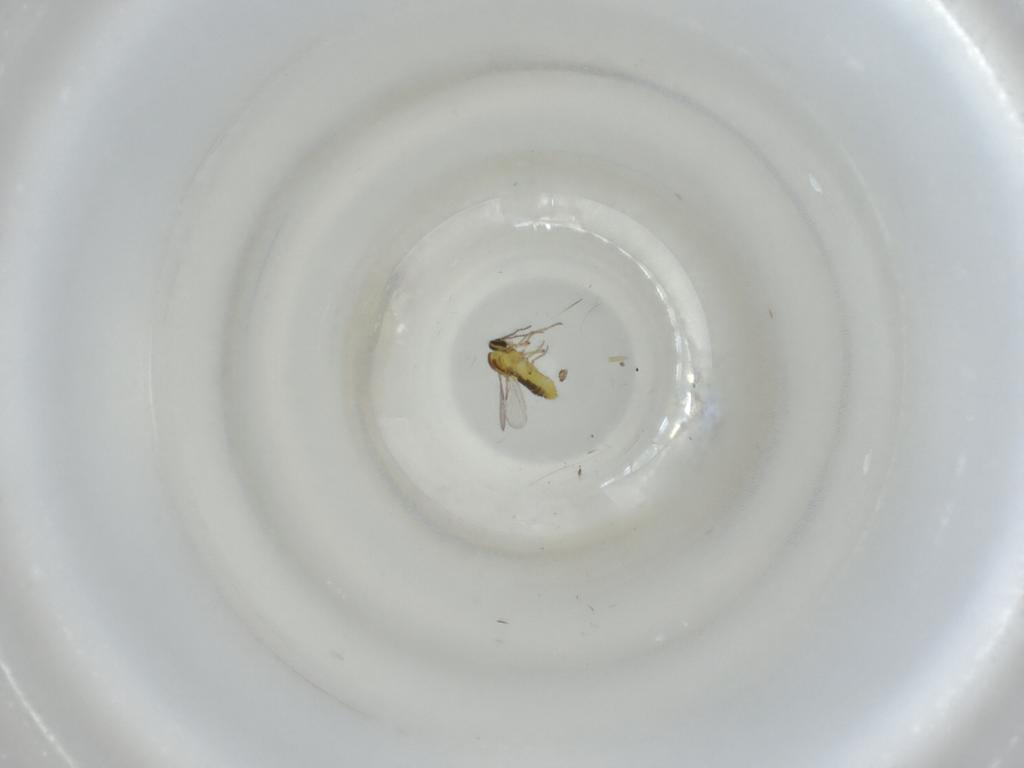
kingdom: Animalia
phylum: Arthropoda
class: Insecta
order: Diptera
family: Ceratopogonidae
